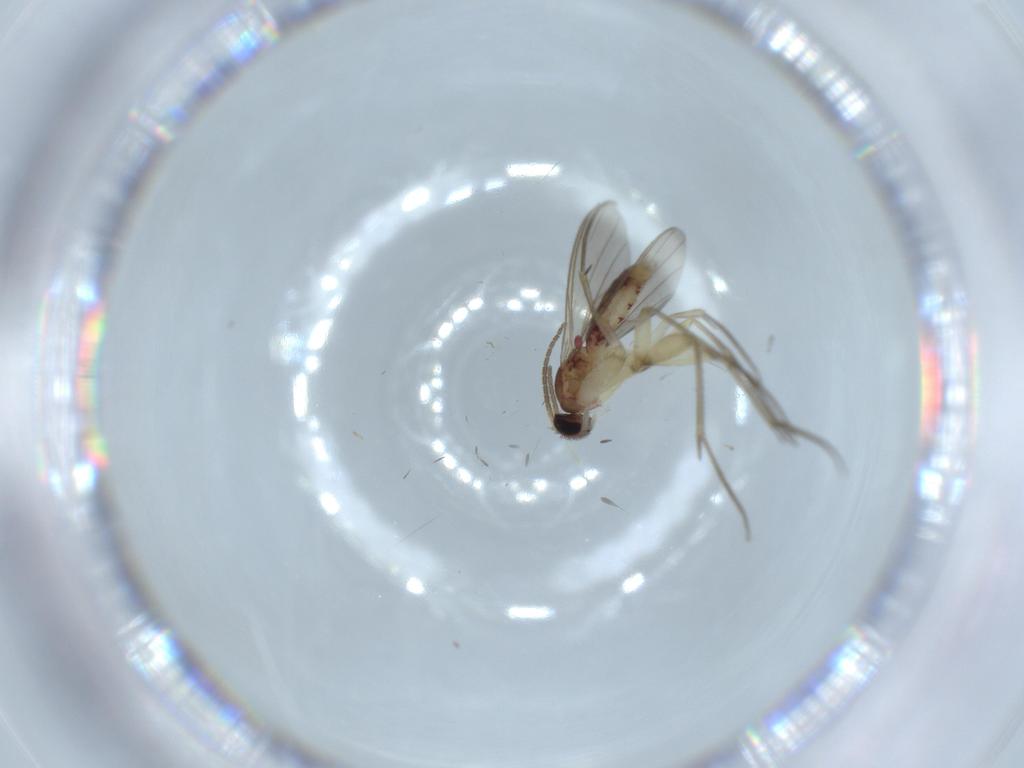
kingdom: Animalia
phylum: Arthropoda
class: Insecta
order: Diptera
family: Mycetophilidae
